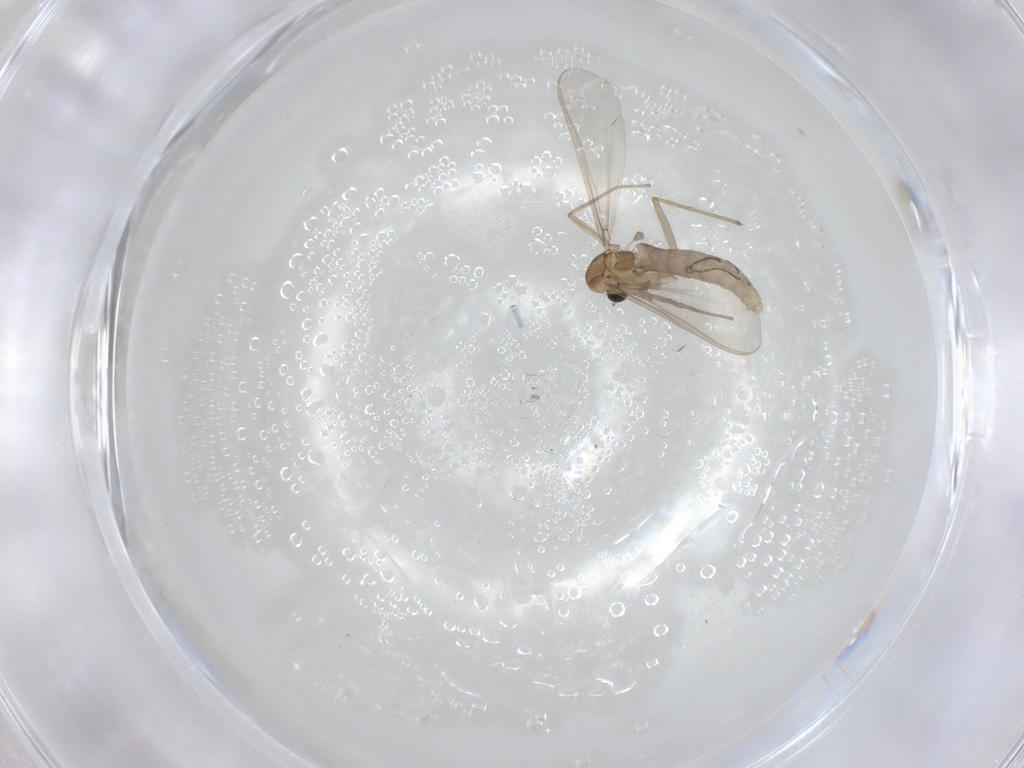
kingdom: Animalia
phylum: Arthropoda
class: Insecta
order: Diptera
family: Chironomidae
